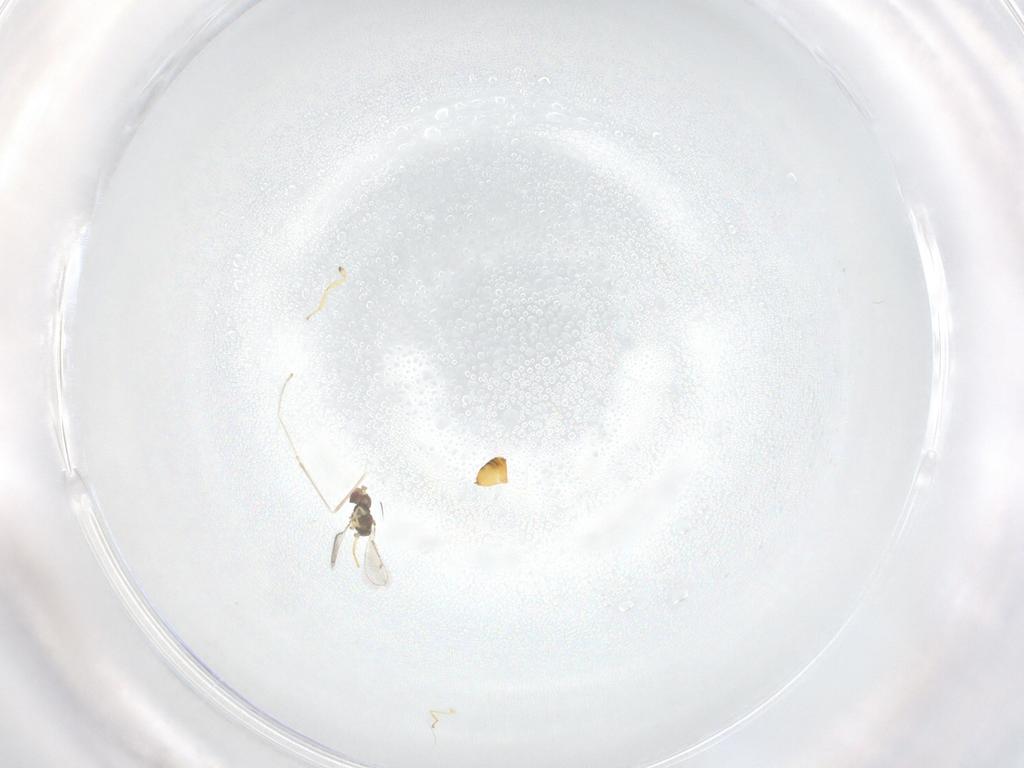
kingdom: Animalia
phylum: Arthropoda
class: Insecta
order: Hymenoptera
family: Eulophidae
